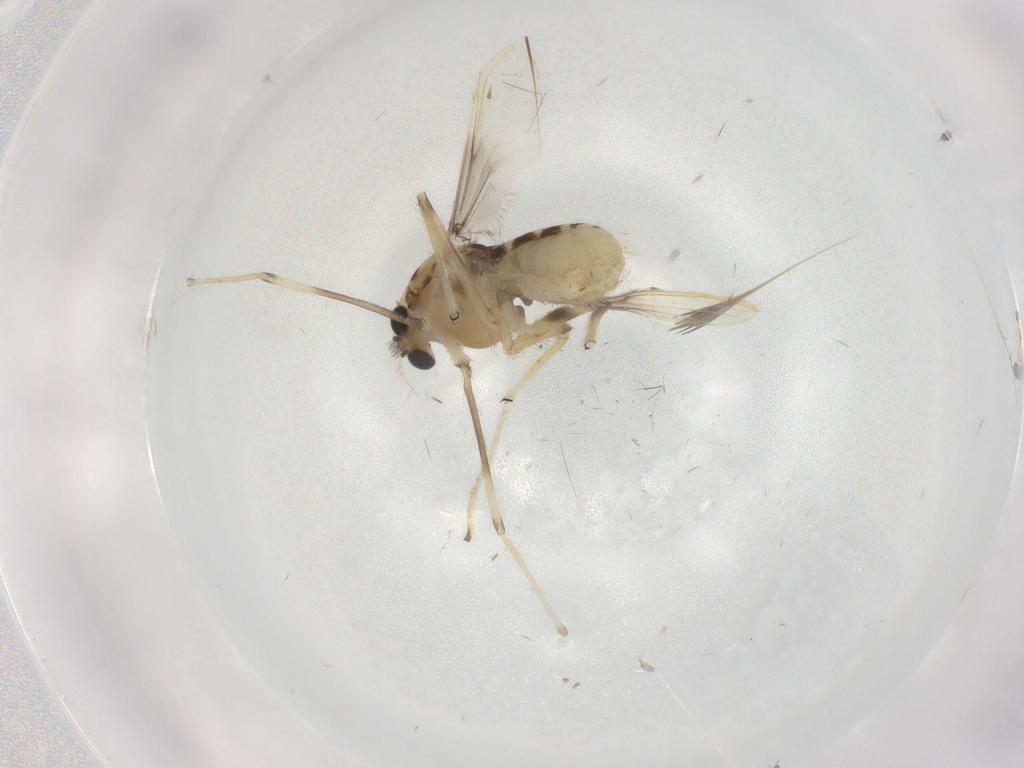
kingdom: Animalia
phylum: Arthropoda
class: Insecta
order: Diptera
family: Chironomidae
